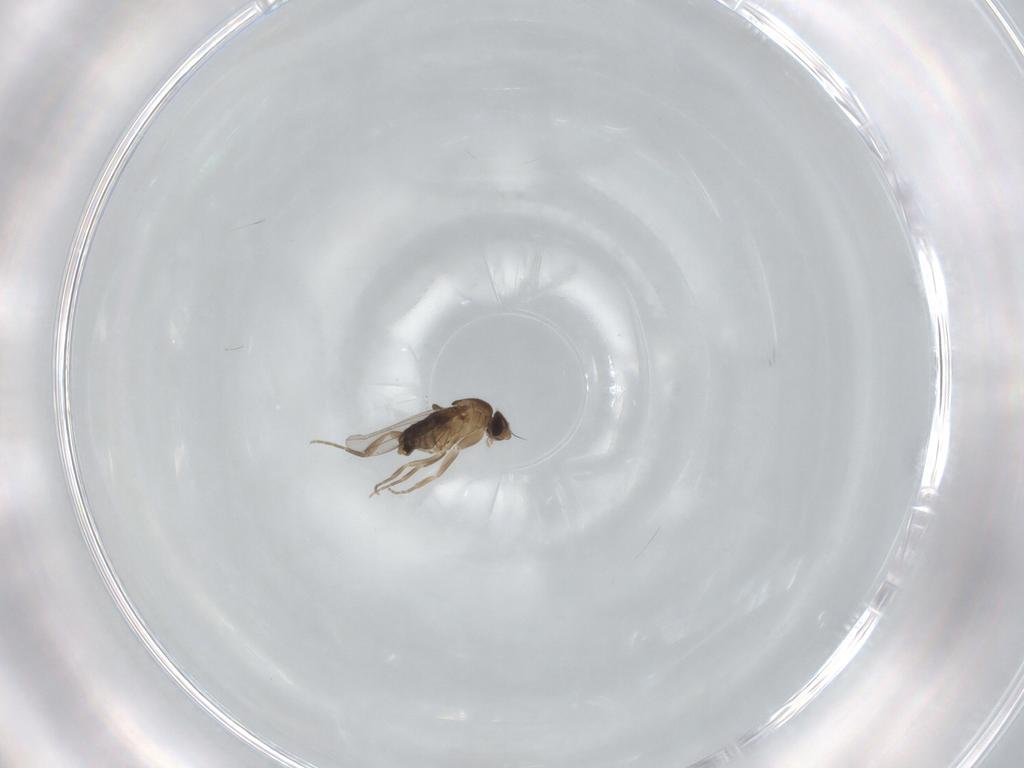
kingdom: Animalia
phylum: Arthropoda
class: Insecta
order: Diptera
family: Phoridae
